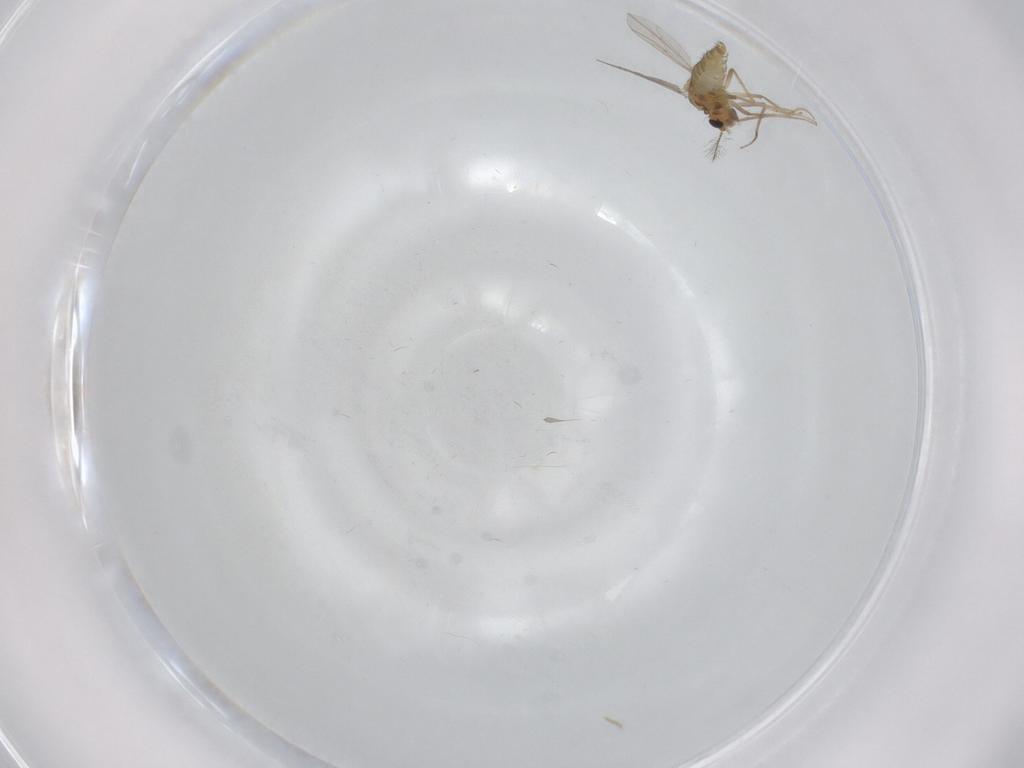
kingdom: Animalia
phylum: Arthropoda
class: Insecta
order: Diptera
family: Chironomidae
